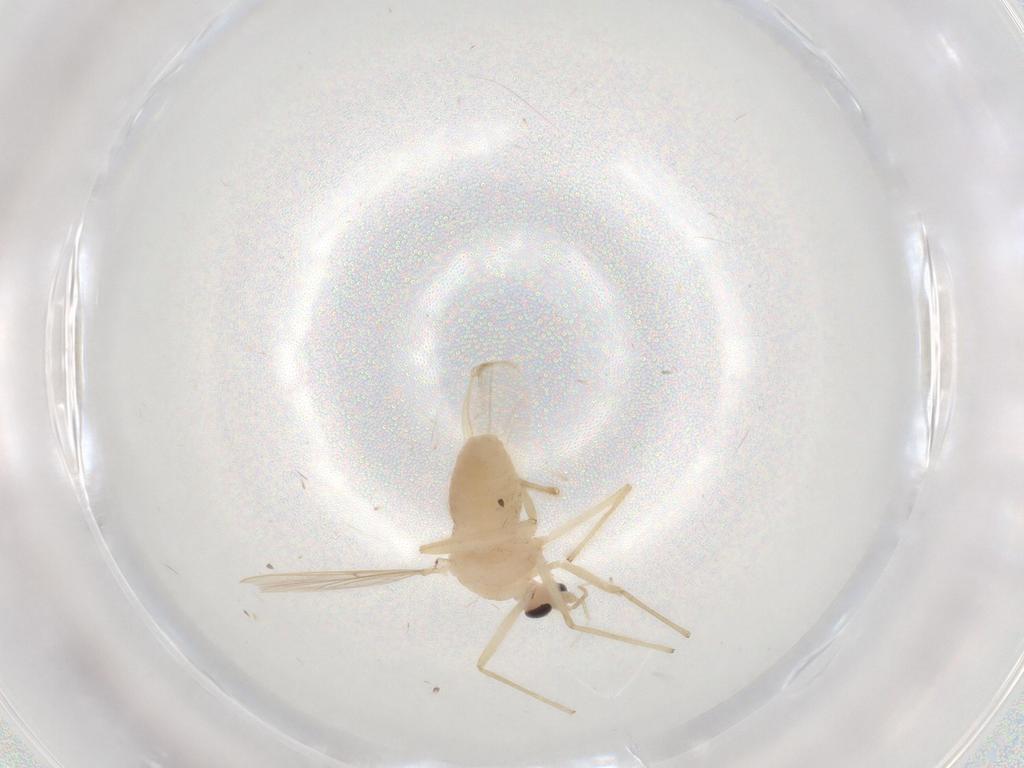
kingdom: Animalia
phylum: Arthropoda
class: Insecta
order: Diptera
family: Chironomidae
